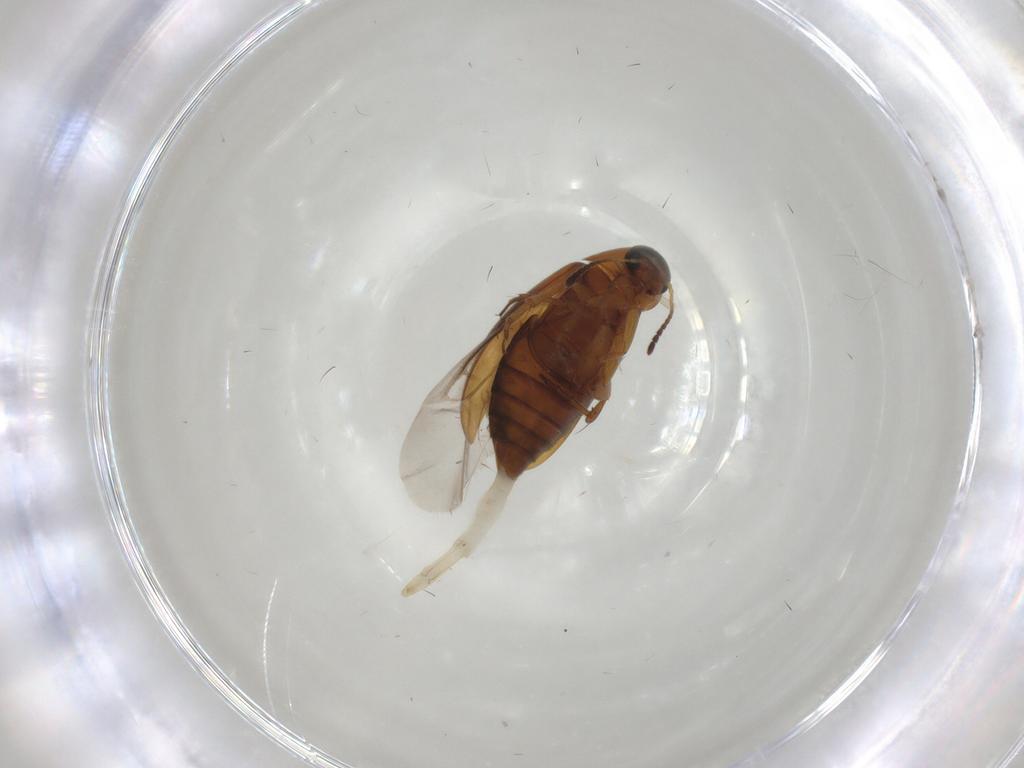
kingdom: Animalia
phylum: Arthropoda
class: Insecta
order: Coleoptera
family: Scraptiidae
